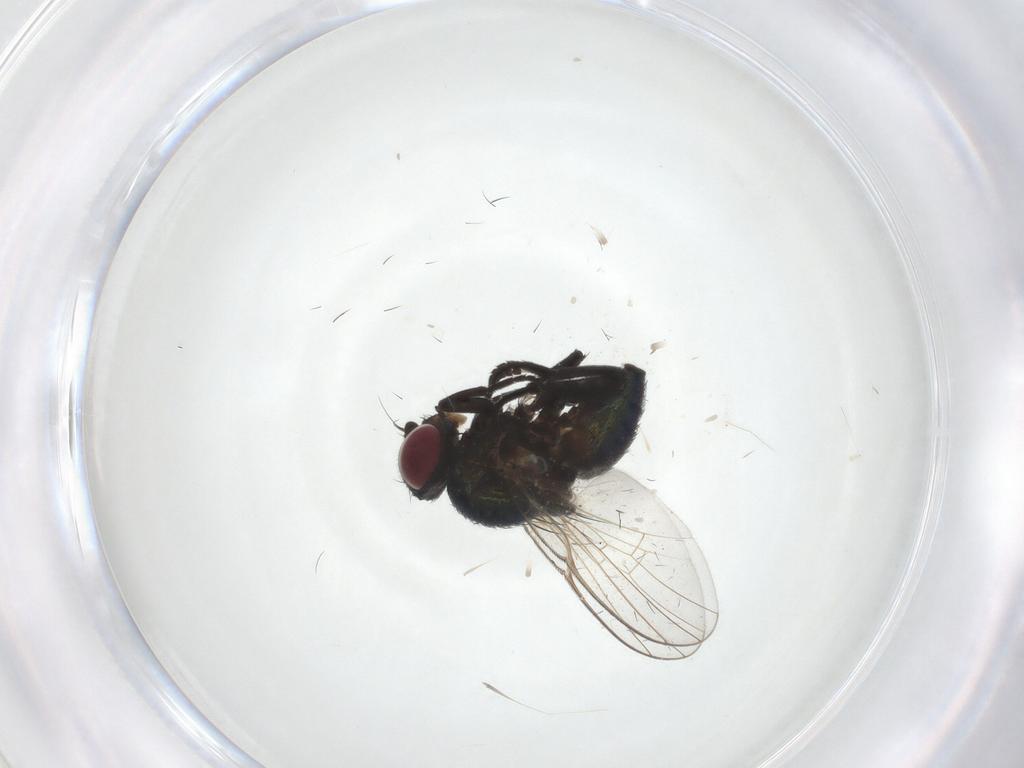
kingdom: Animalia
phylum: Arthropoda
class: Insecta
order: Diptera
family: Agromyzidae
